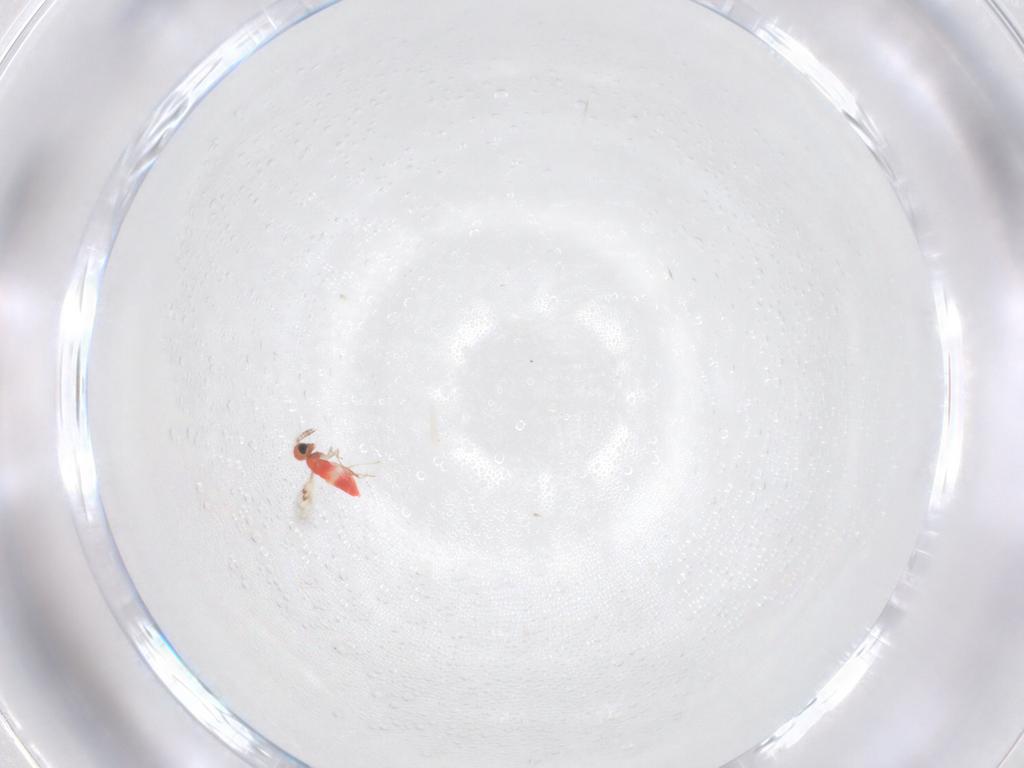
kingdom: Animalia
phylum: Arthropoda
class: Insecta
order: Hymenoptera
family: Trichogrammatidae
